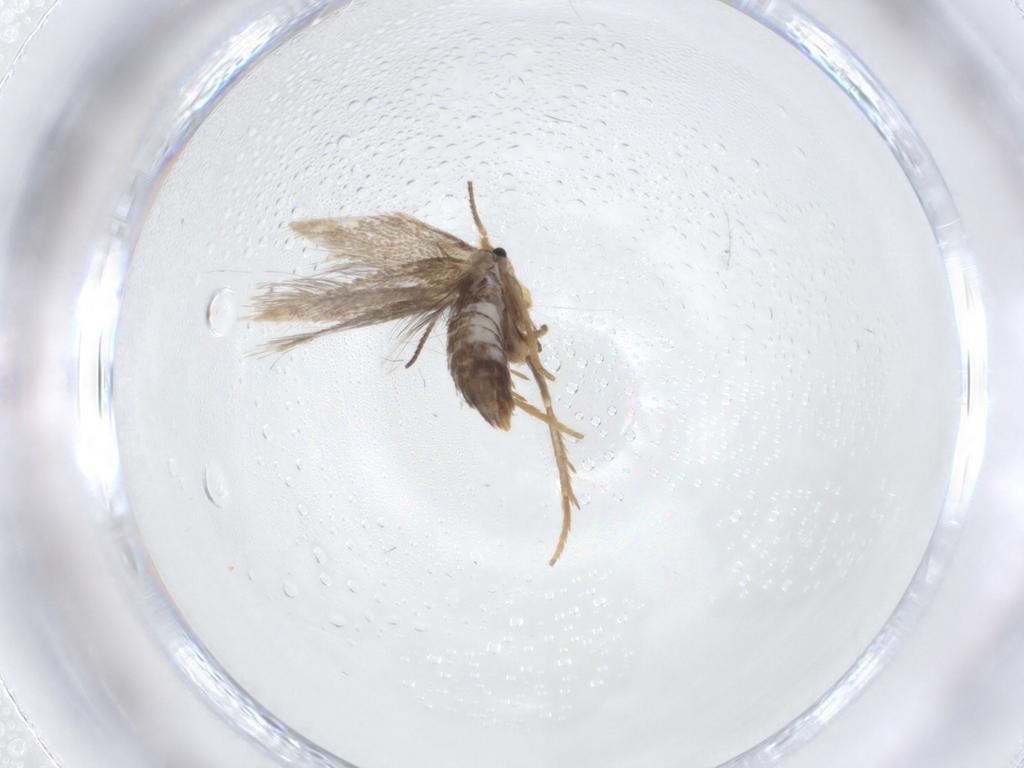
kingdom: Animalia
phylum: Arthropoda
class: Insecta
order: Lepidoptera
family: Nepticulidae
